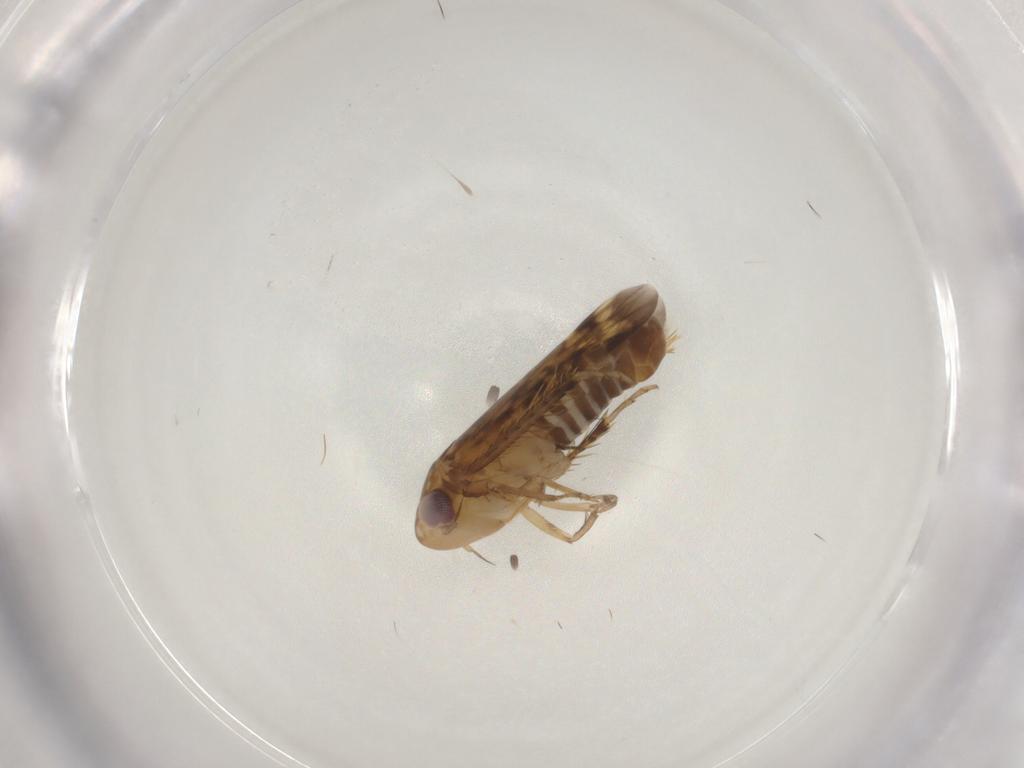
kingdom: Animalia
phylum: Arthropoda
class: Insecta
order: Hemiptera
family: Cicadellidae
